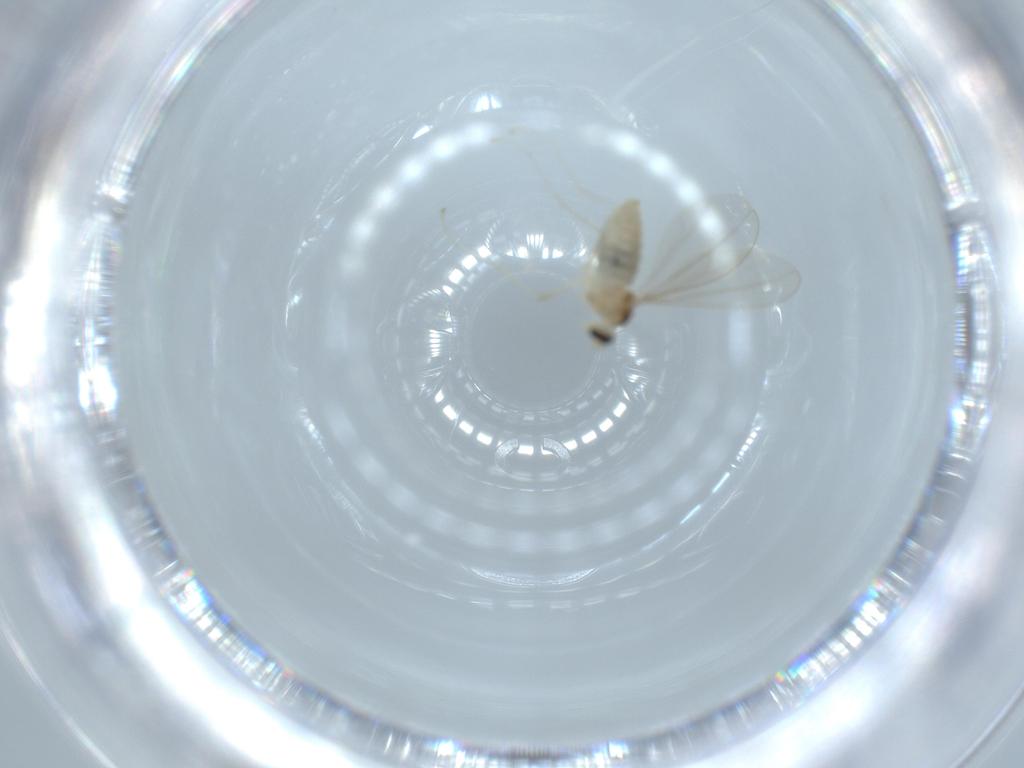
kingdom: Animalia
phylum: Arthropoda
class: Insecta
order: Diptera
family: Cecidomyiidae
